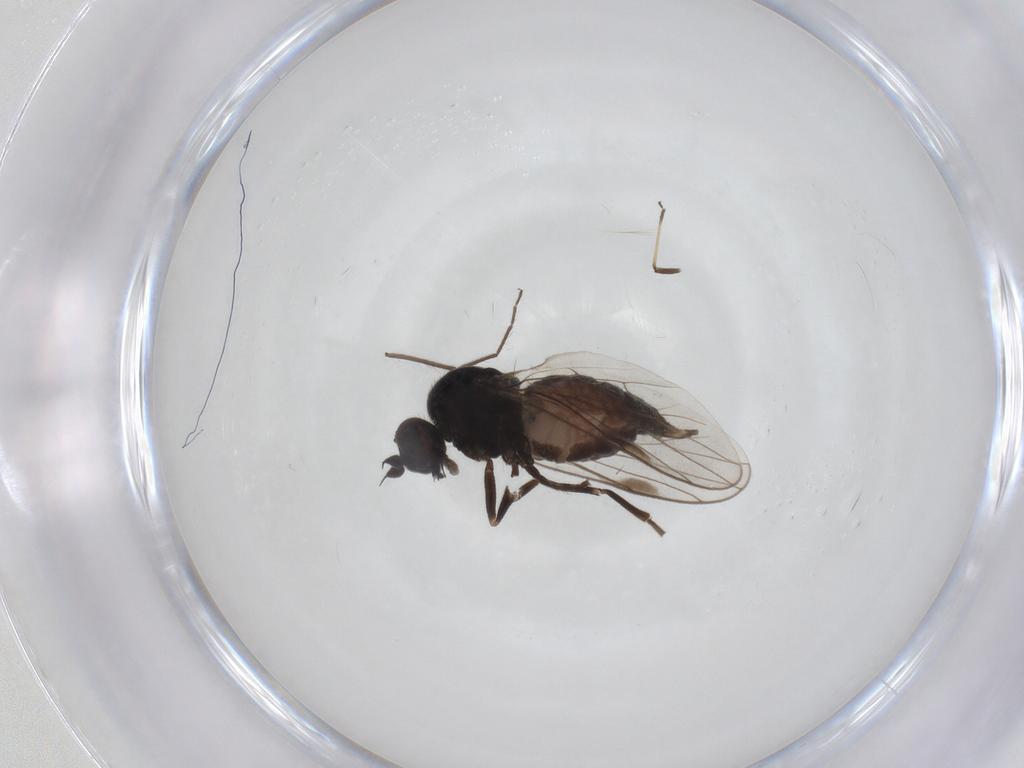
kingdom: Animalia
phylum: Arthropoda
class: Insecta
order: Diptera
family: Hybotidae
